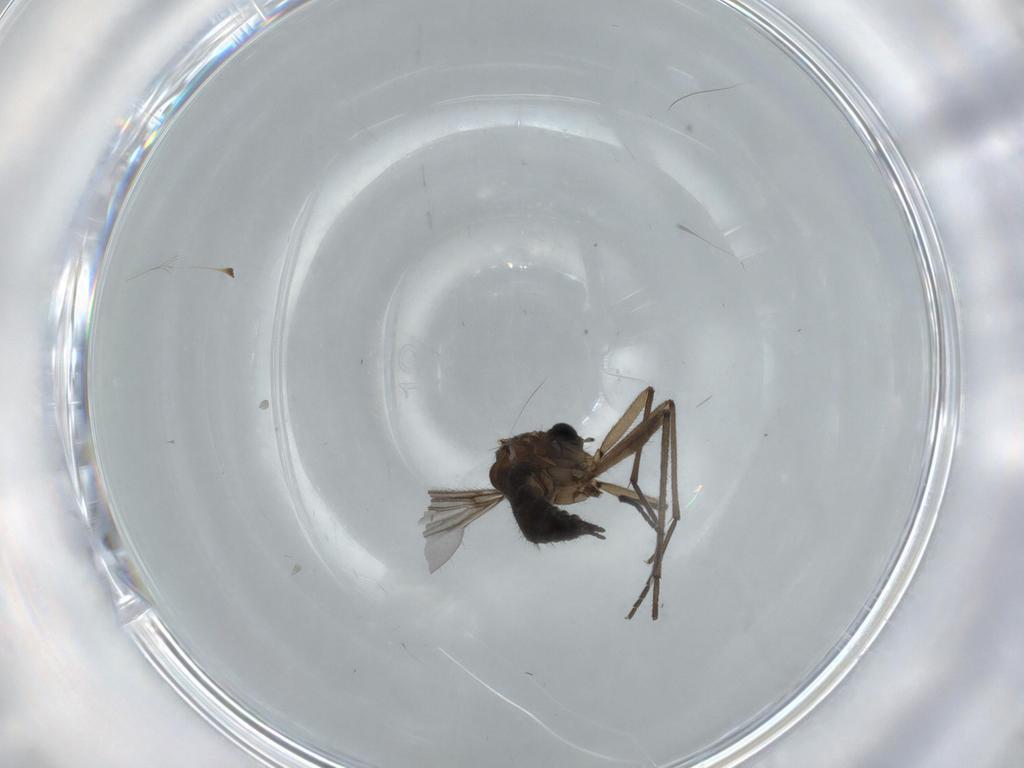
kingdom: Animalia
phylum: Arthropoda
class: Insecta
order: Diptera
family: Sciaridae
